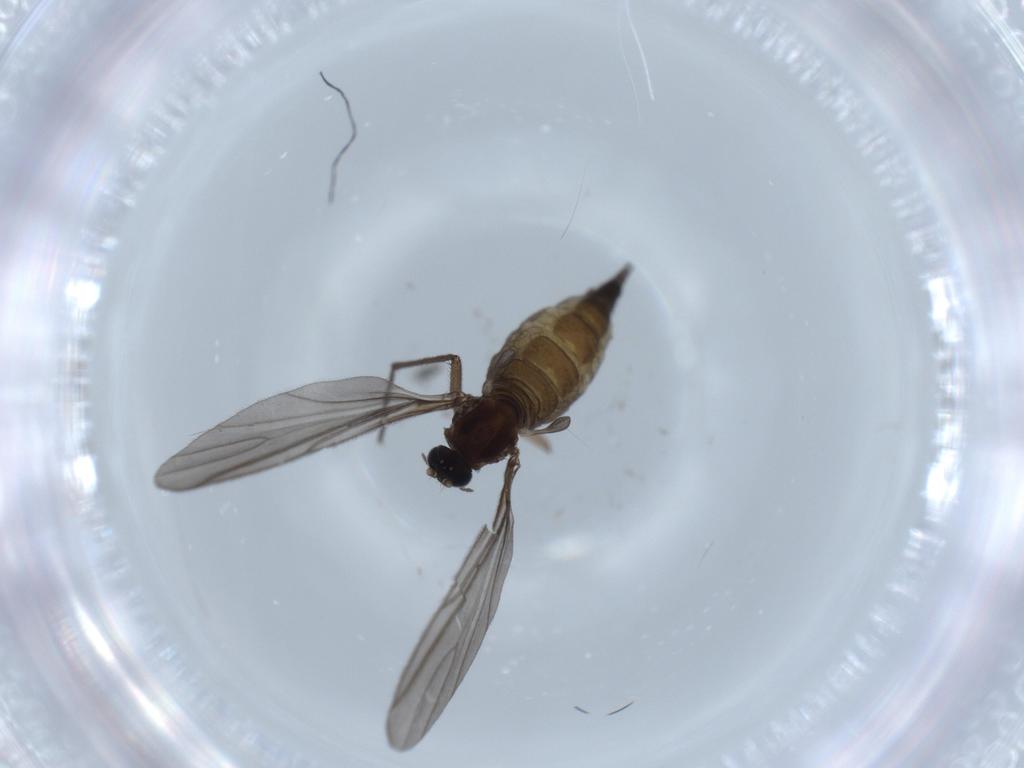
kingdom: Animalia
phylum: Arthropoda
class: Insecta
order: Diptera
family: Sciaridae
